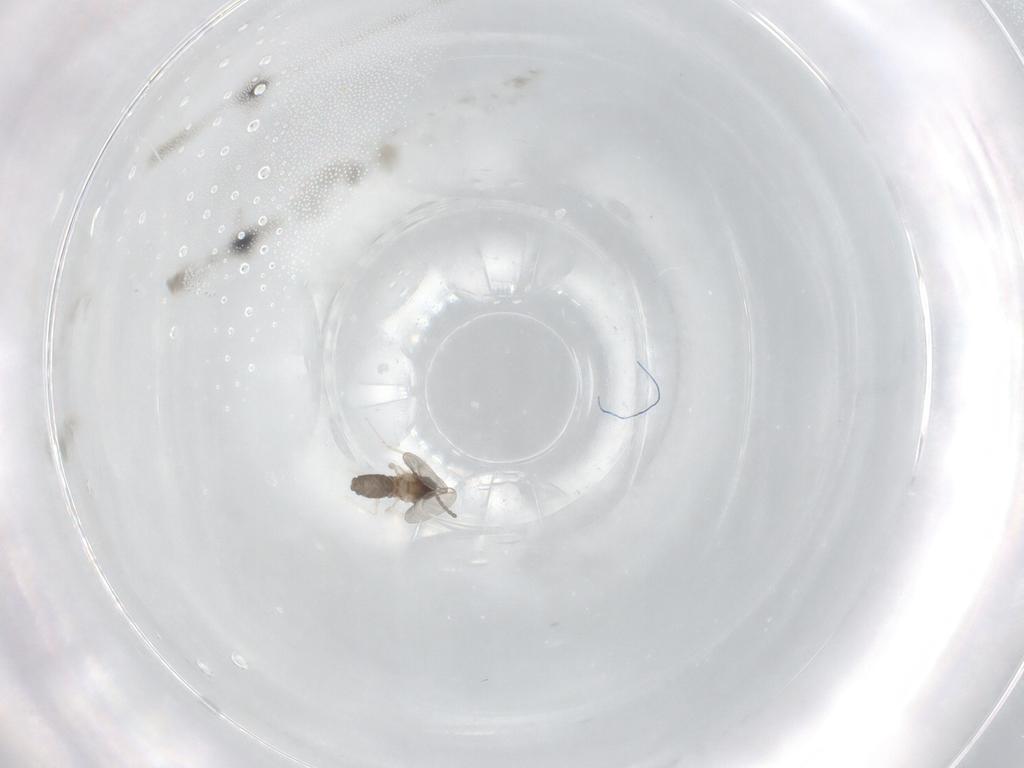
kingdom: Animalia
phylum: Arthropoda
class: Insecta
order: Diptera
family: Cecidomyiidae
